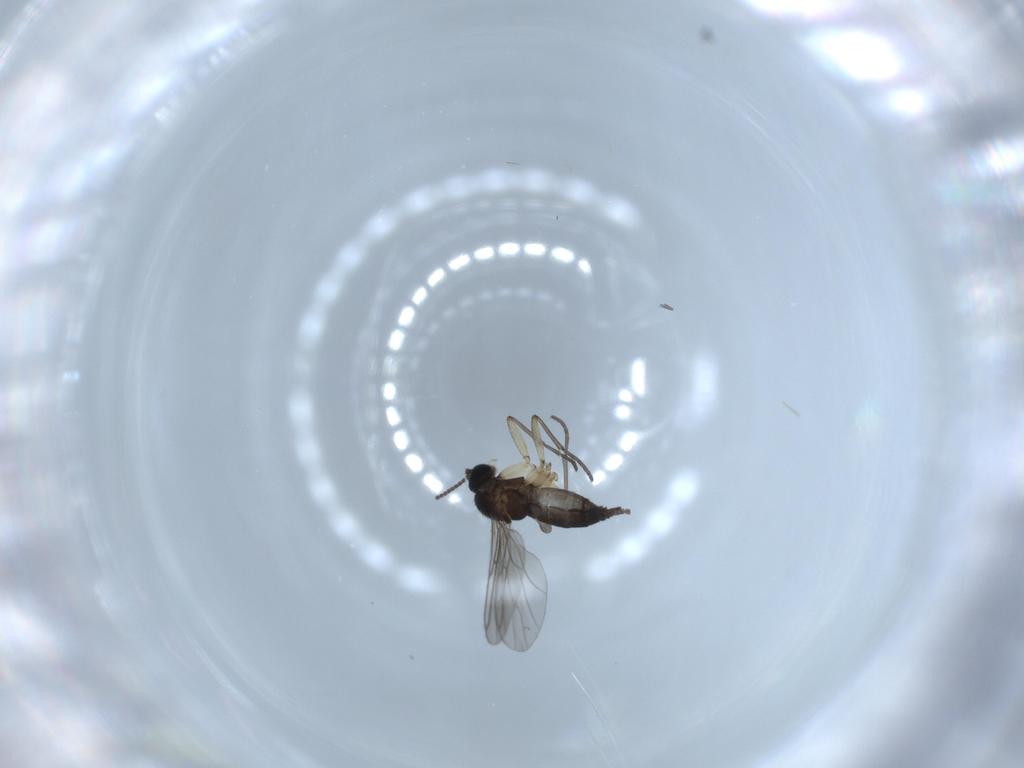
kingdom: Animalia
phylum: Arthropoda
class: Insecta
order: Diptera
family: Sciaridae
